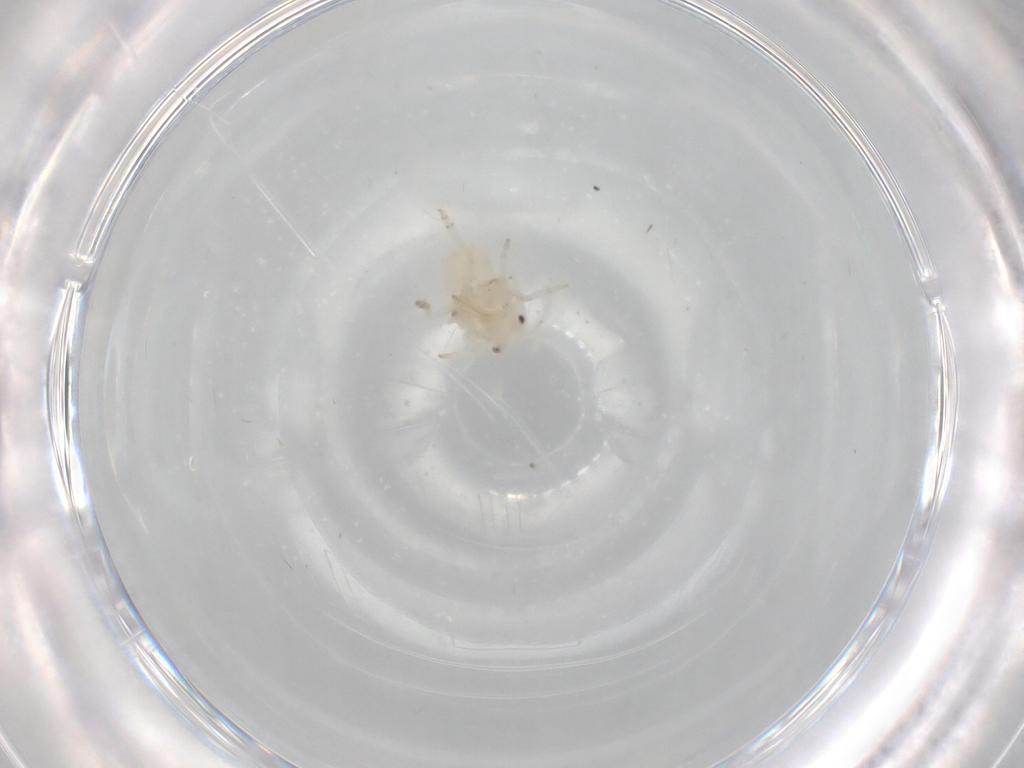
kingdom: Animalia
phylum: Arthropoda
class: Insecta
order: Hemiptera
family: Flatidae
